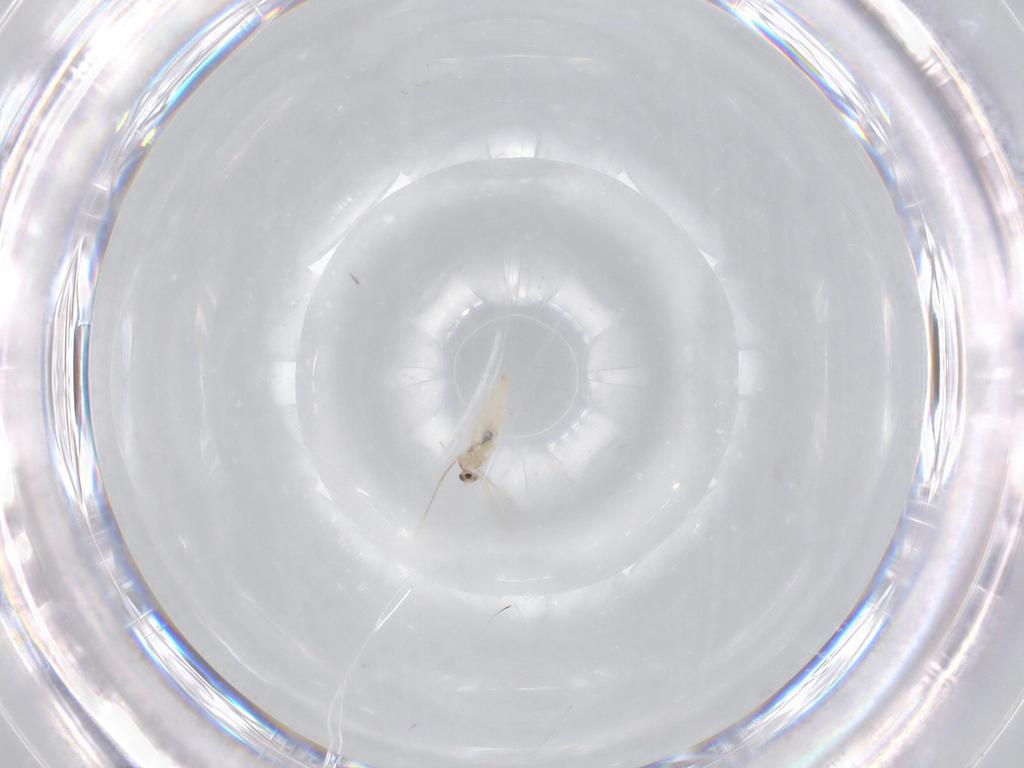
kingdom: Animalia
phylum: Arthropoda
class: Insecta
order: Diptera
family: Cecidomyiidae
